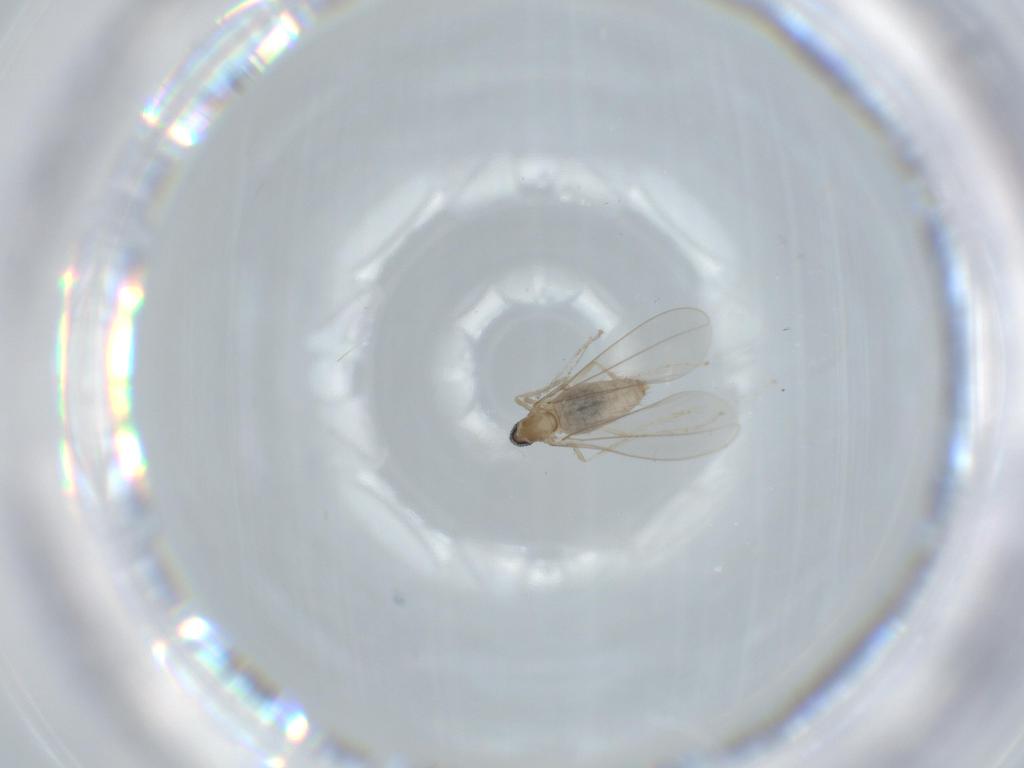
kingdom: Animalia
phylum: Arthropoda
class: Insecta
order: Diptera
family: Cecidomyiidae
